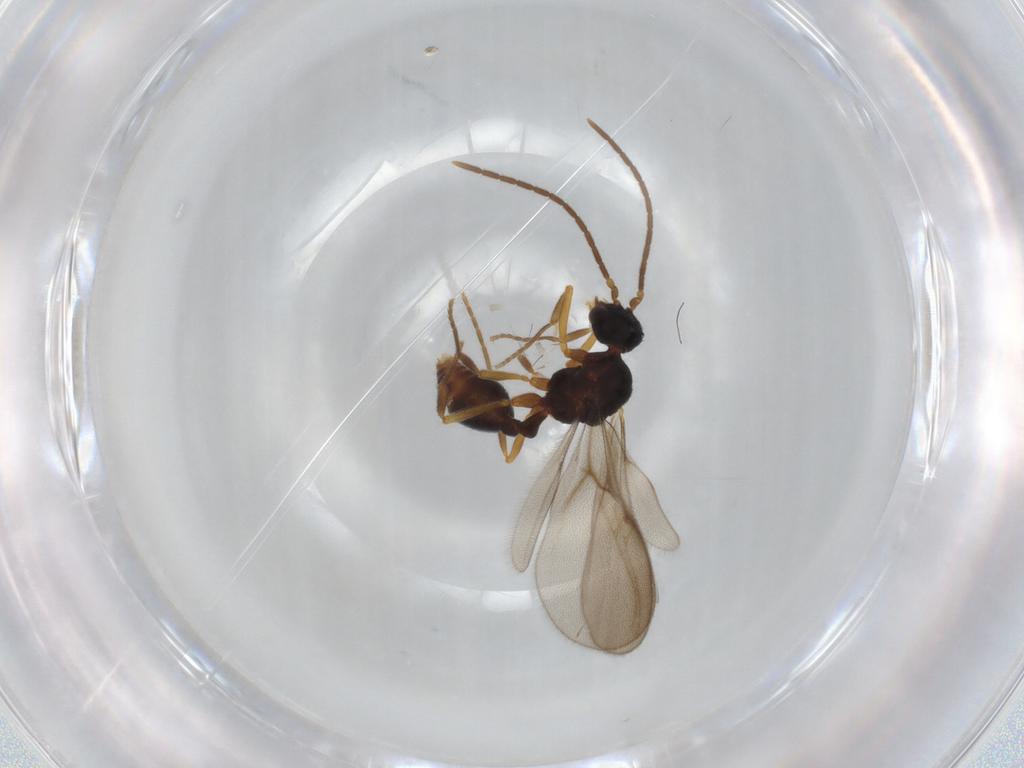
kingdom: Animalia
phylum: Arthropoda
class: Insecta
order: Hymenoptera
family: Formicidae
